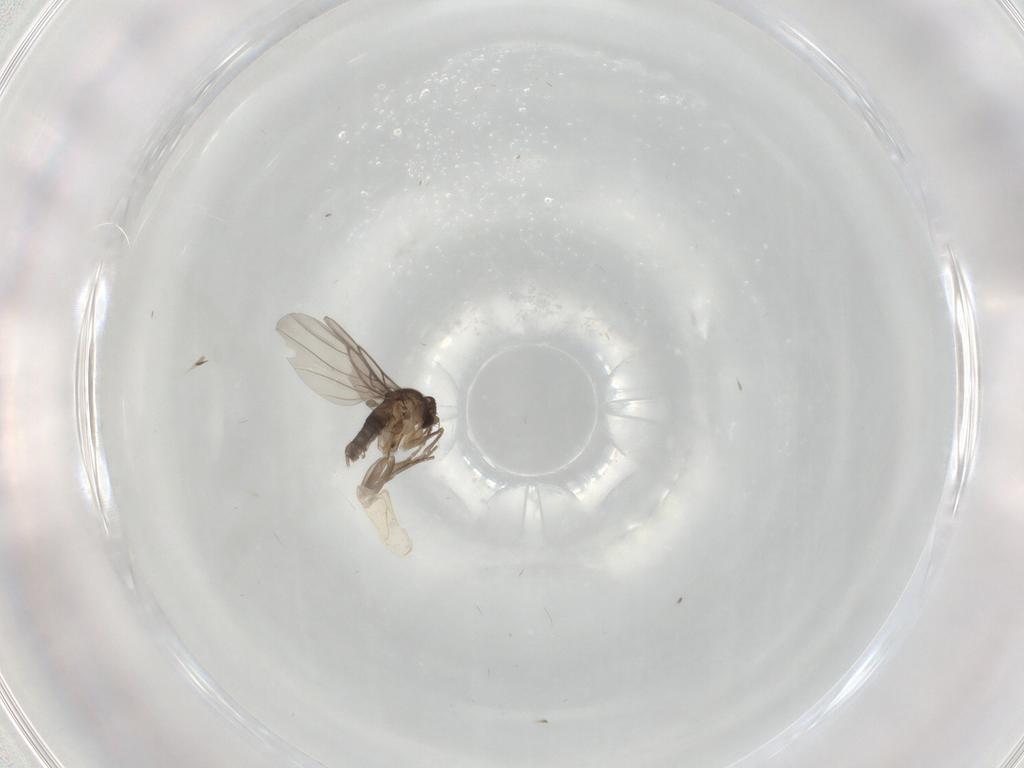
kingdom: Animalia
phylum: Arthropoda
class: Insecta
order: Diptera
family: Phoridae
